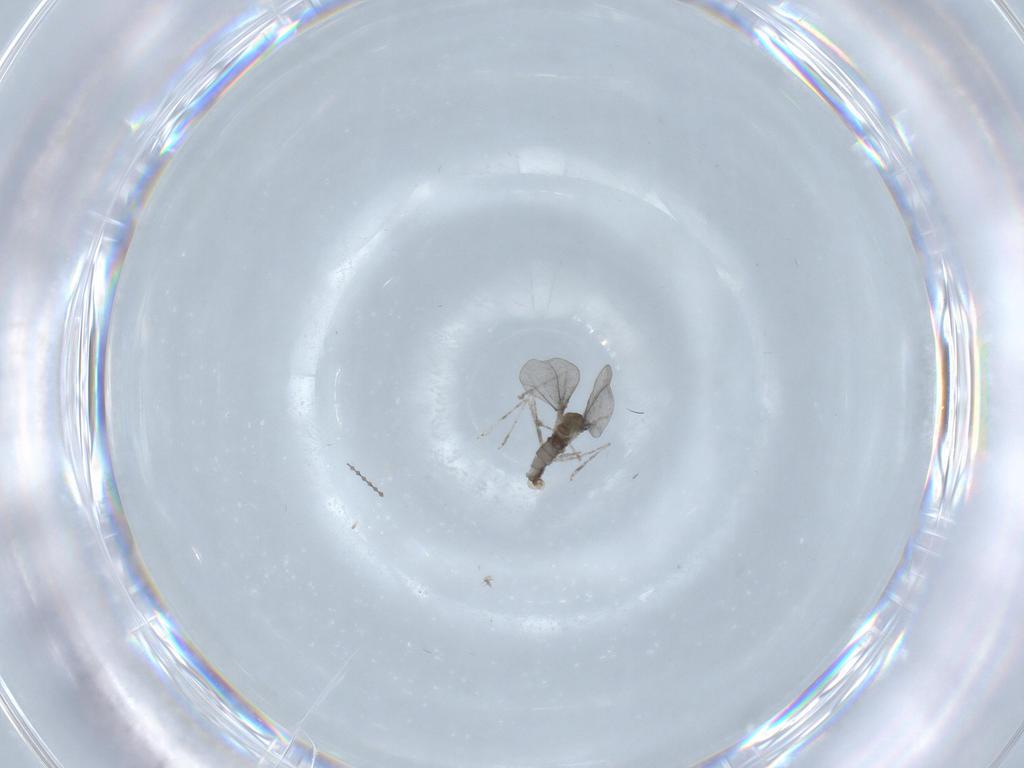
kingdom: Animalia
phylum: Arthropoda
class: Insecta
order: Diptera
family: Cecidomyiidae
